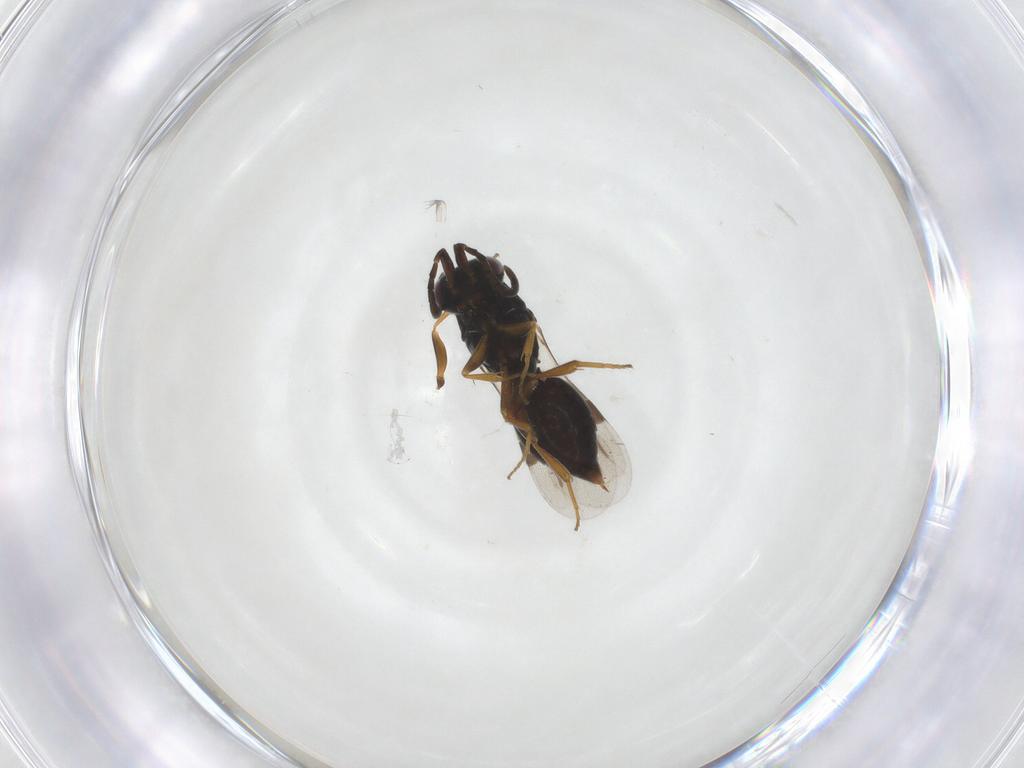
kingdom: Animalia
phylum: Arthropoda
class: Insecta
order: Hymenoptera
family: Megaspilidae
